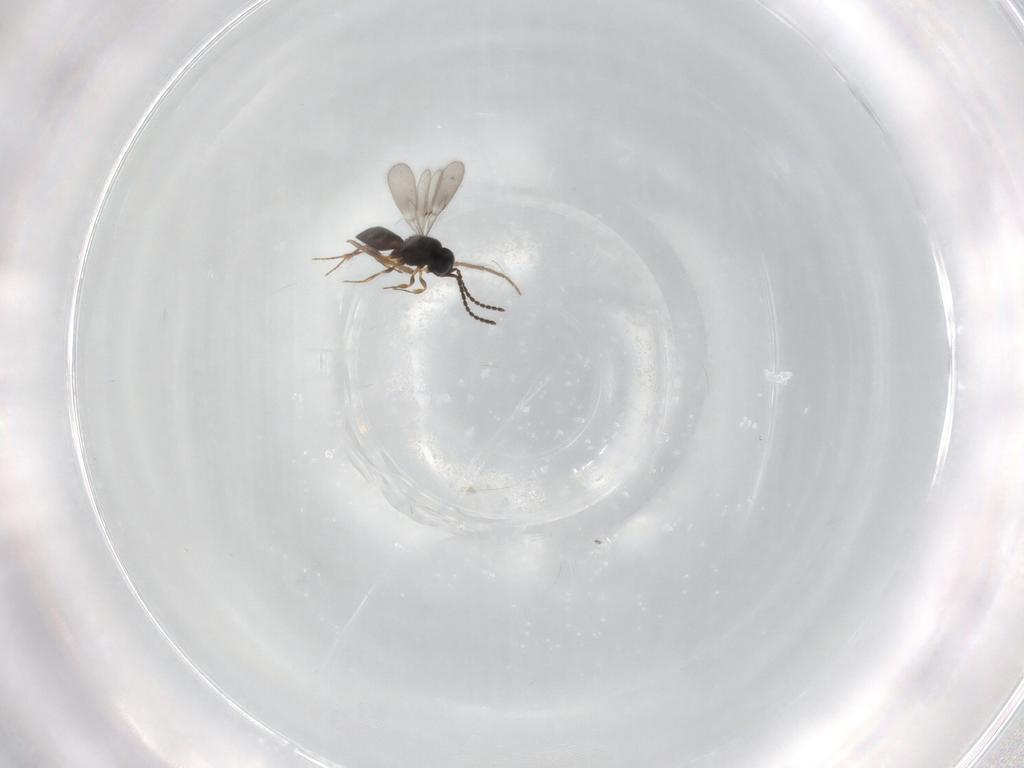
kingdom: Animalia
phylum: Arthropoda
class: Insecta
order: Hymenoptera
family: Scelionidae
